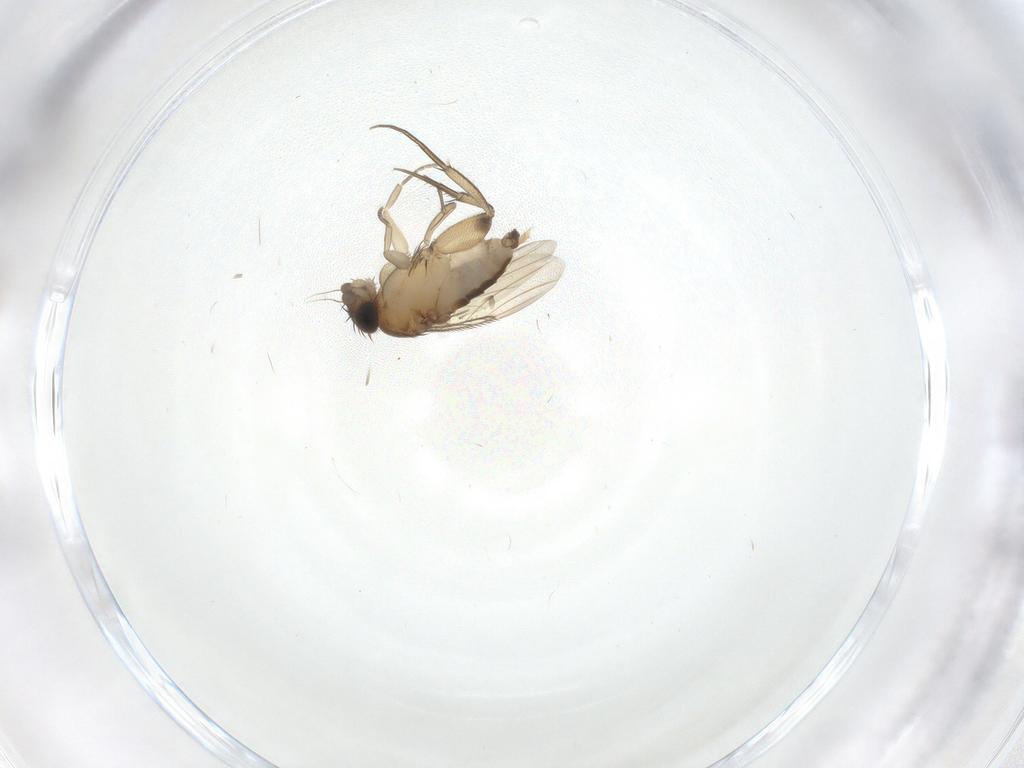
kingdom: Animalia
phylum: Arthropoda
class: Insecta
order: Diptera
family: Phoridae
